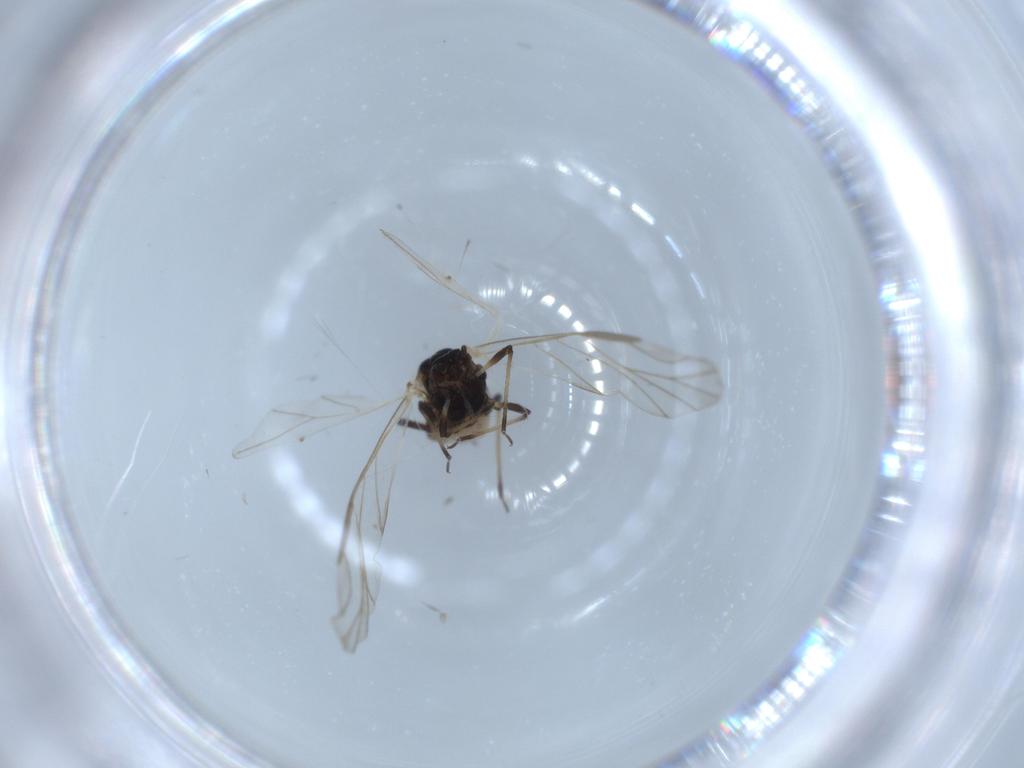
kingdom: Animalia
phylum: Arthropoda
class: Insecta
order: Hemiptera
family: Aphididae
